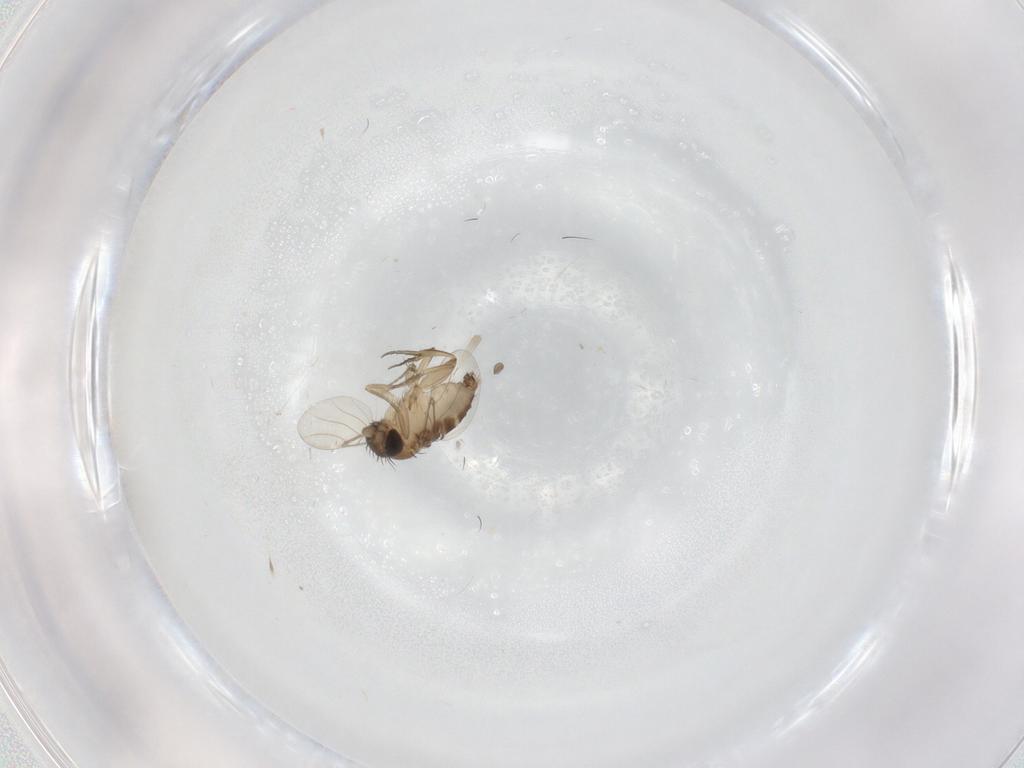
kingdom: Animalia
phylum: Arthropoda
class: Insecta
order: Diptera
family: Phoridae
